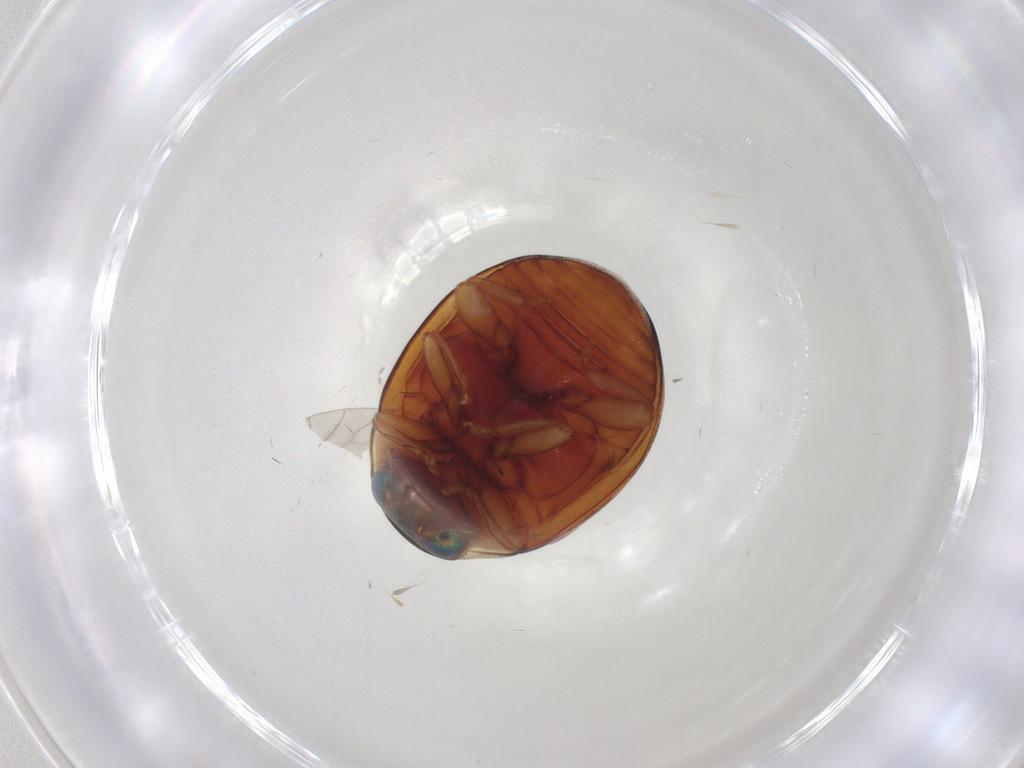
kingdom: Animalia
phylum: Arthropoda
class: Insecta
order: Coleoptera
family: Coccinellidae
